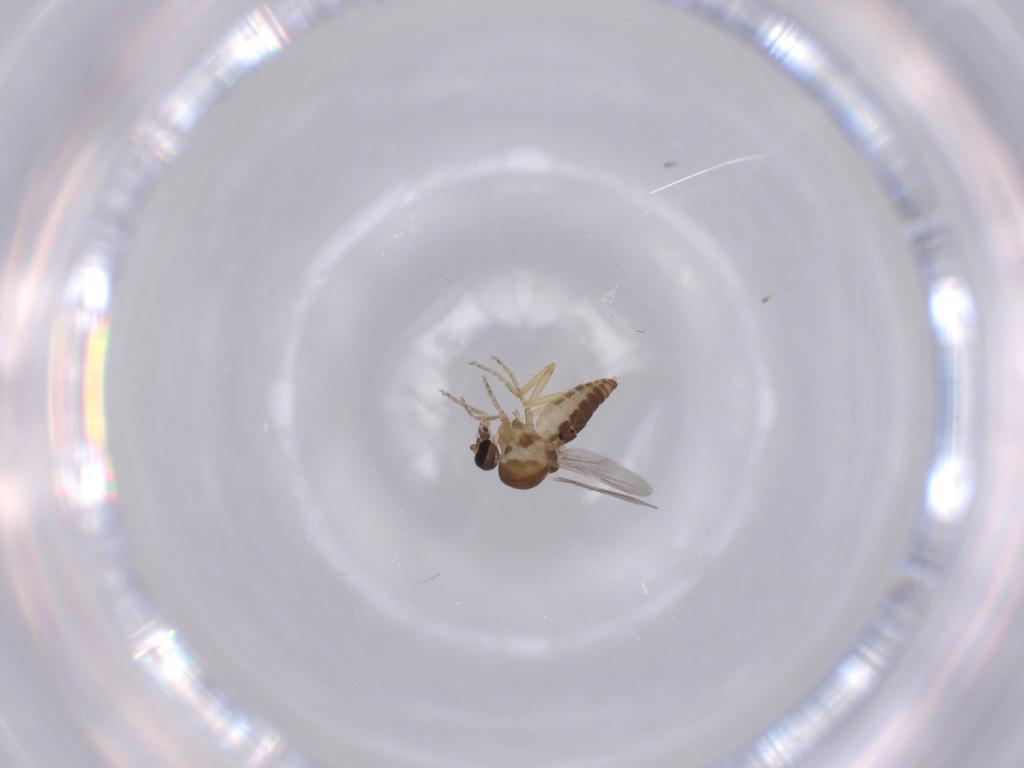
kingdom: Animalia
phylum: Arthropoda
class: Insecta
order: Diptera
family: Ceratopogonidae
